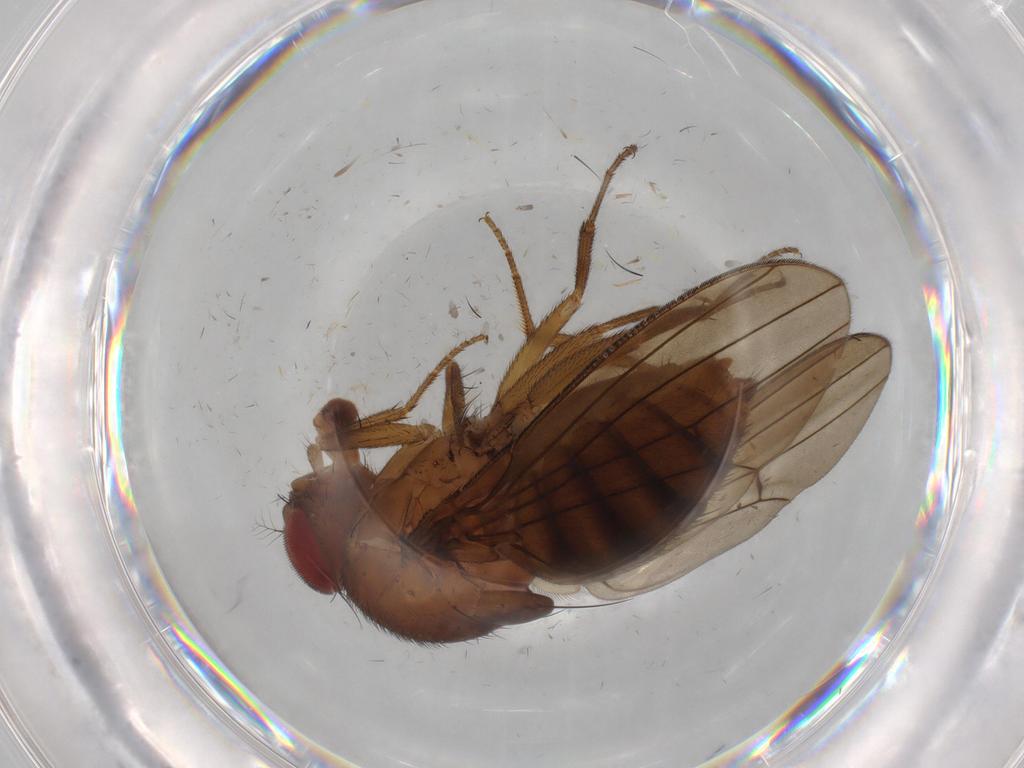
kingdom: Animalia
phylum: Arthropoda
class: Insecta
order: Diptera
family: Drosophilidae
